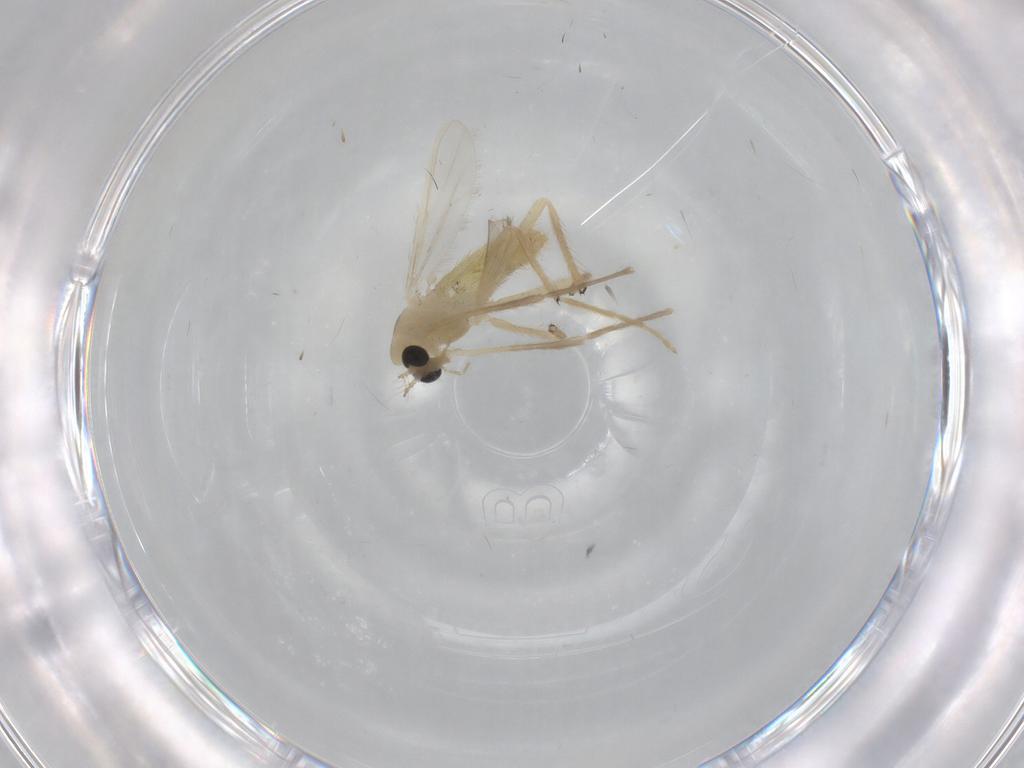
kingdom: Animalia
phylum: Arthropoda
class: Insecta
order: Diptera
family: Chironomidae
